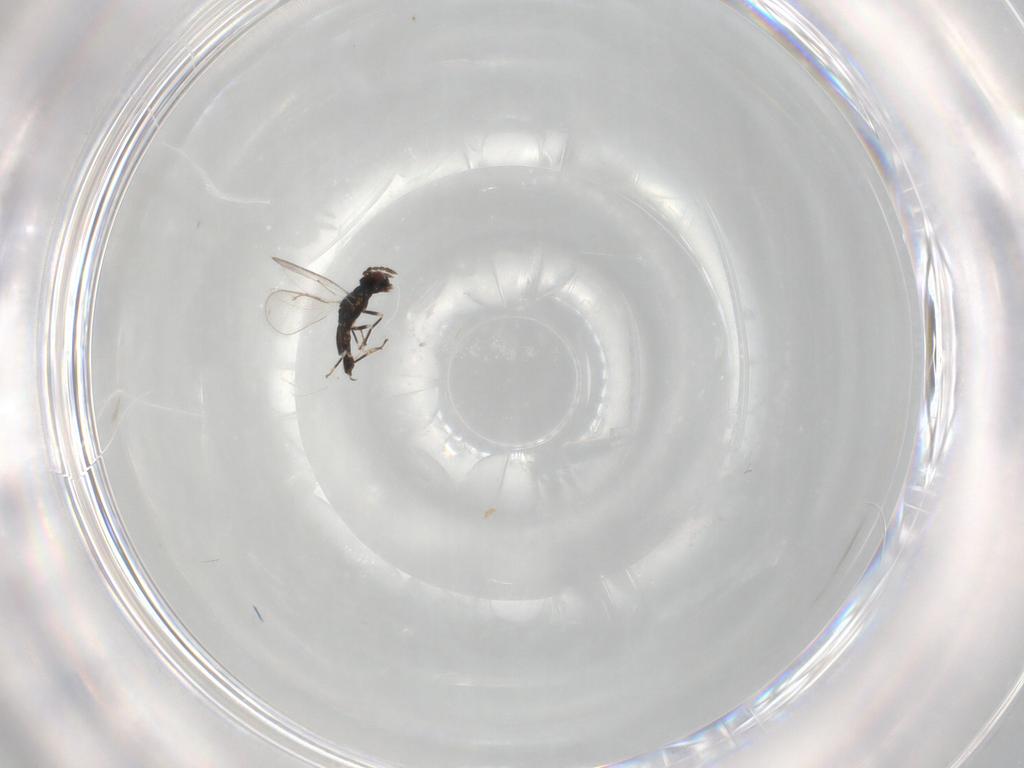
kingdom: Animalia
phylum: Arthropoda
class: Insecta
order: Hymenoptera
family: Eulophidae
